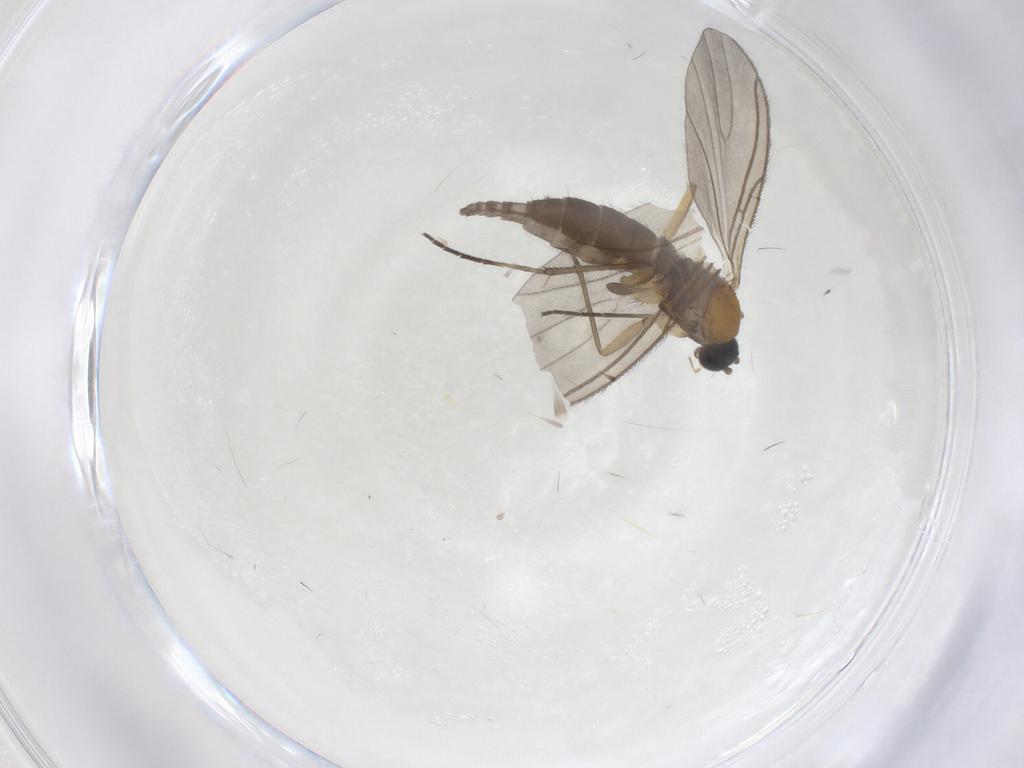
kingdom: Animalia
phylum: Arthropoda
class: Insecta
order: Diptera
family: Sciaridae
